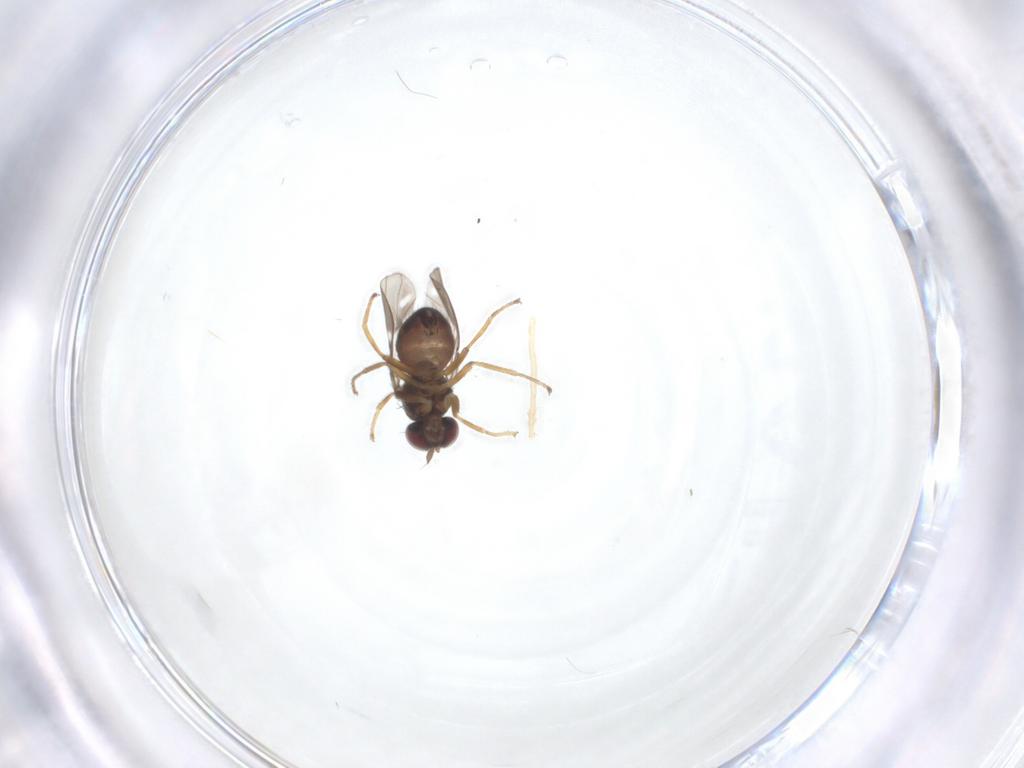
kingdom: Animalia
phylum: Arthropoda
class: Insecta
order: Diptera
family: Ephydridae
